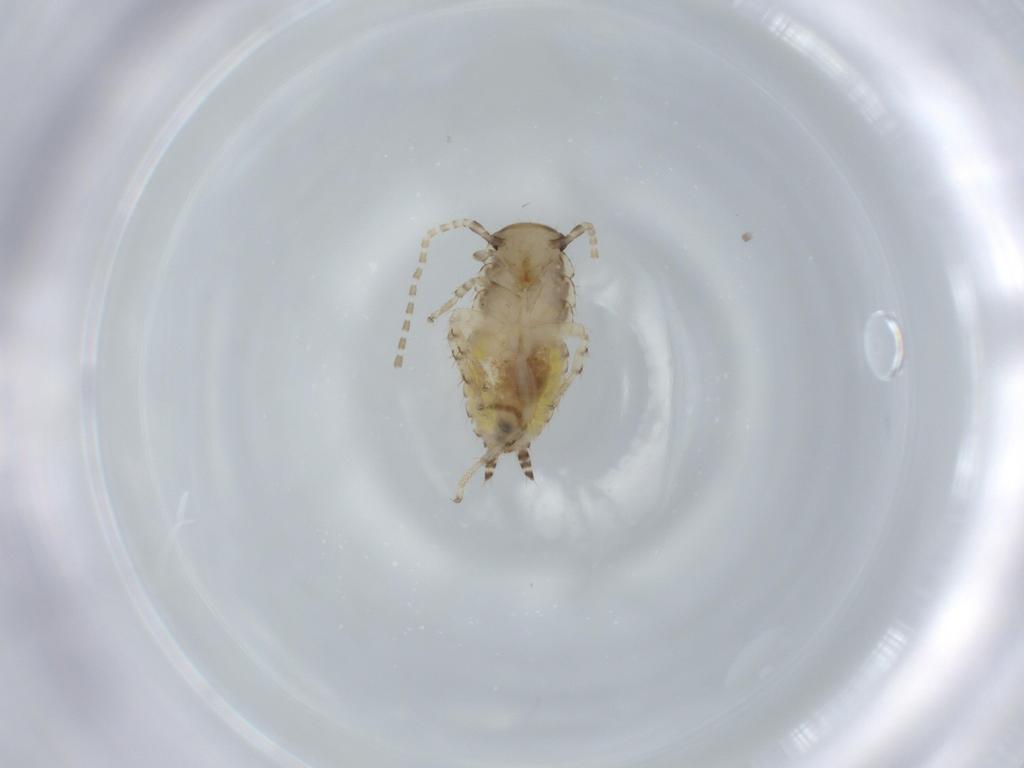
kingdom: Animalia
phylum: Arthropoda
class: Insecta
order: Blattodea
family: Ectobiidae
